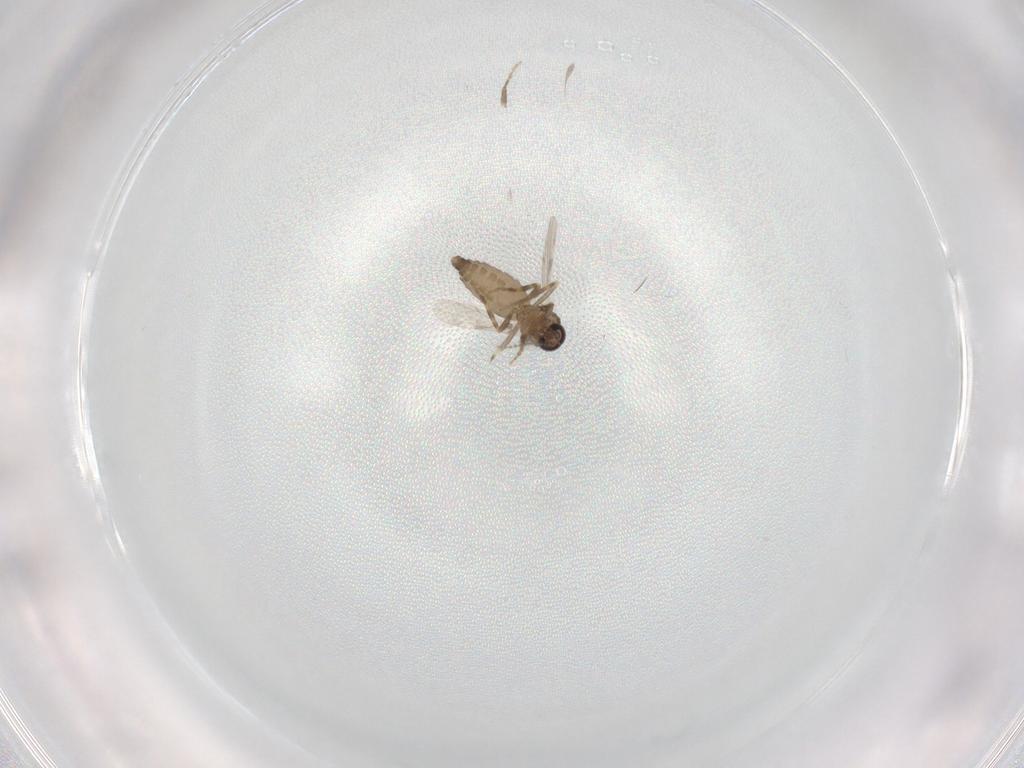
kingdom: Animalia
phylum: Arthropoda
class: Insecta
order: Diptera
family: Ceratopogonidae
